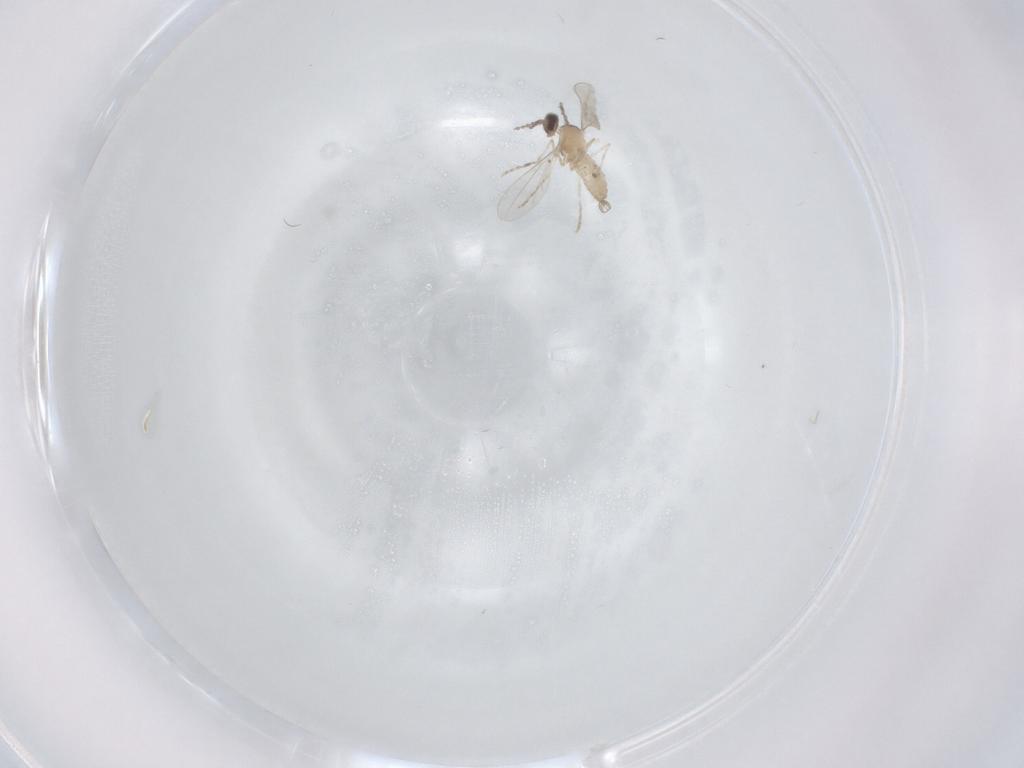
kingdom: Animalia
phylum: Arthropoda
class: Insecta
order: Diptera
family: Cecidomyiidae
